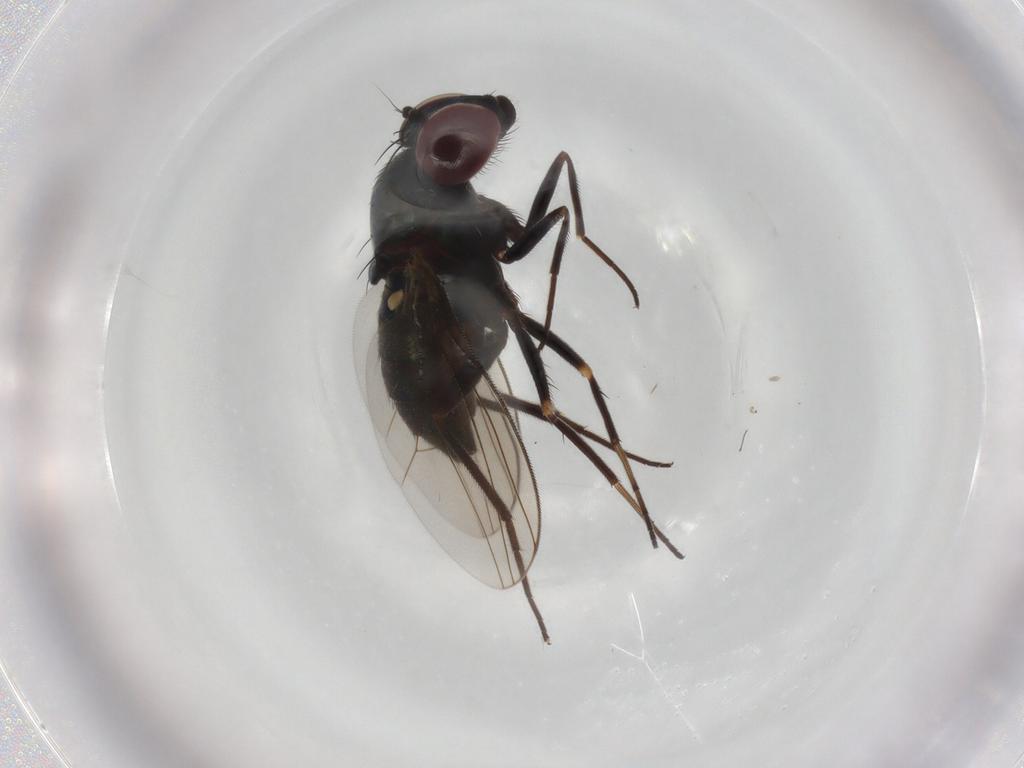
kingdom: Animalia
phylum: Arthropoda
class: Insecta
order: Diptera
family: Dolichopodidae
